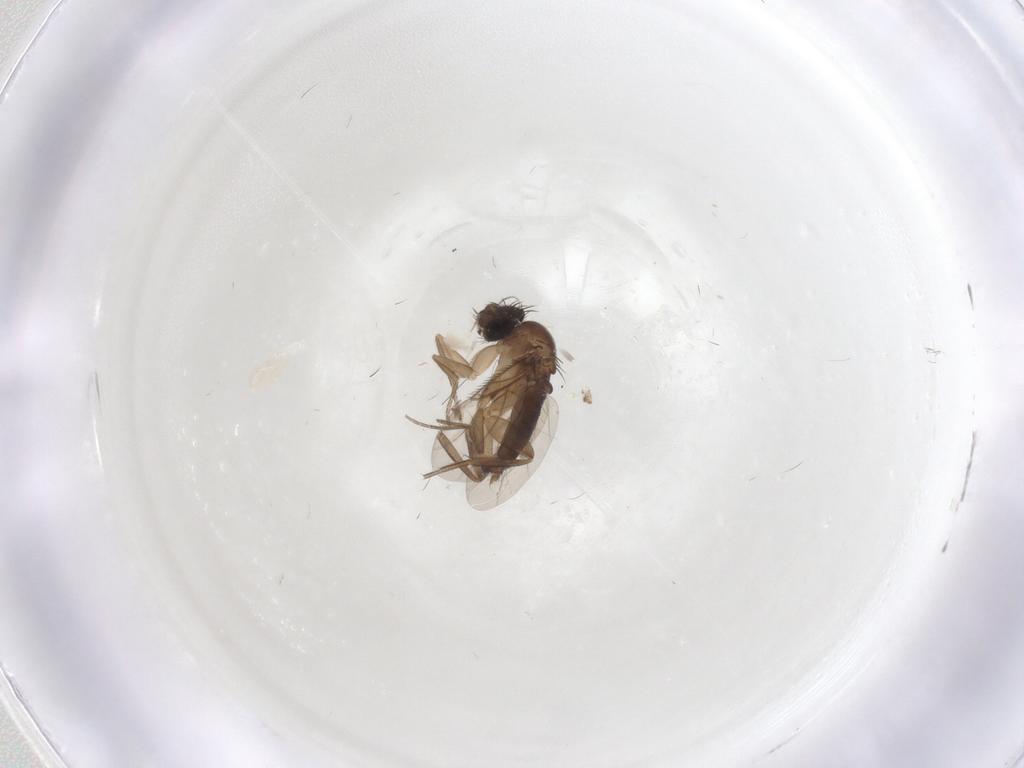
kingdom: Animalia
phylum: Arthropoda
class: Insecta
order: Diptera
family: Phoridae
